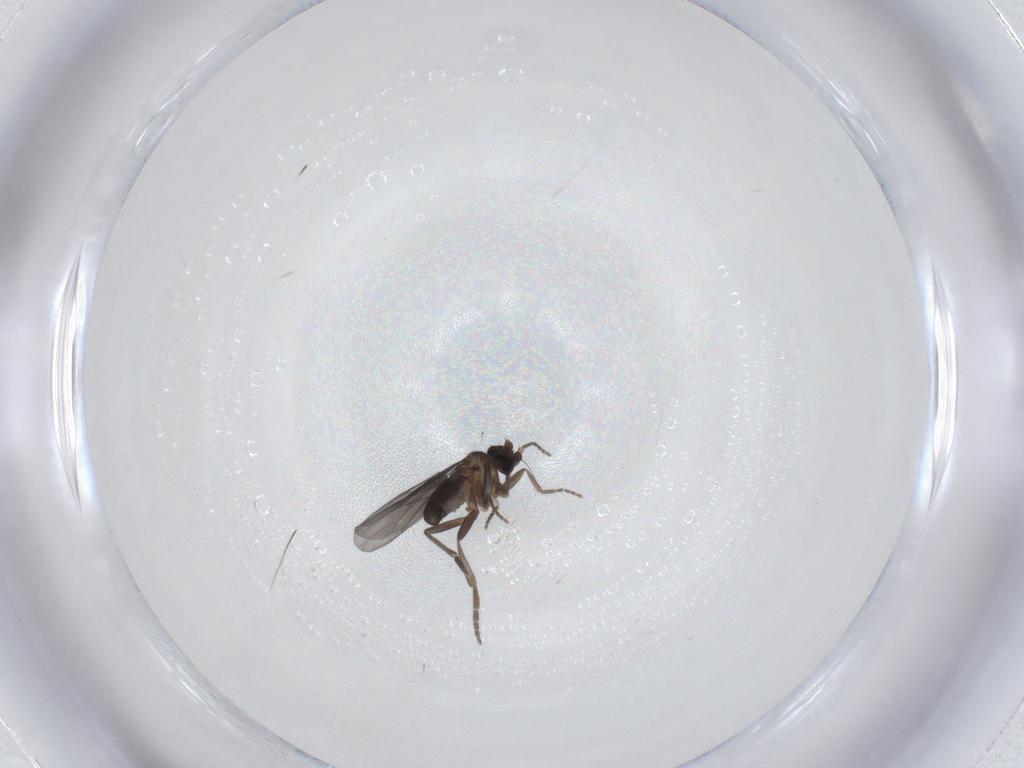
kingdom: Animalia
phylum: Arthropoda
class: Insecta
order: Diptera
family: Phoridae
